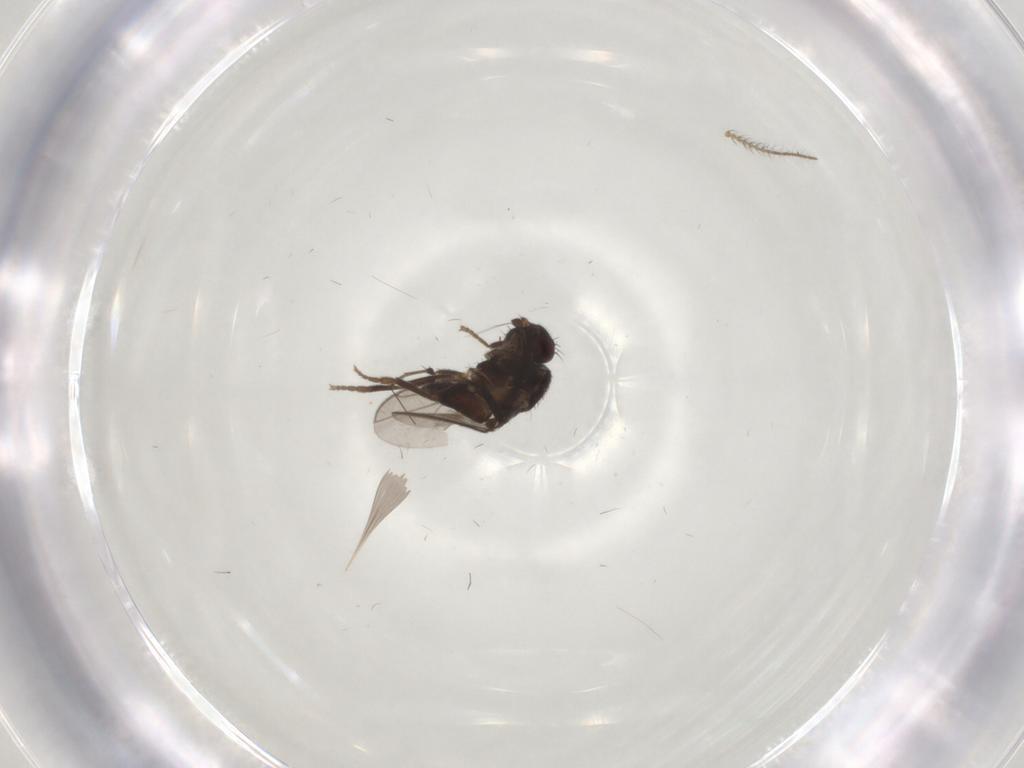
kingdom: Animalia
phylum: Arthropoda
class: Insecta
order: Diptera
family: Sphaeroceridae
